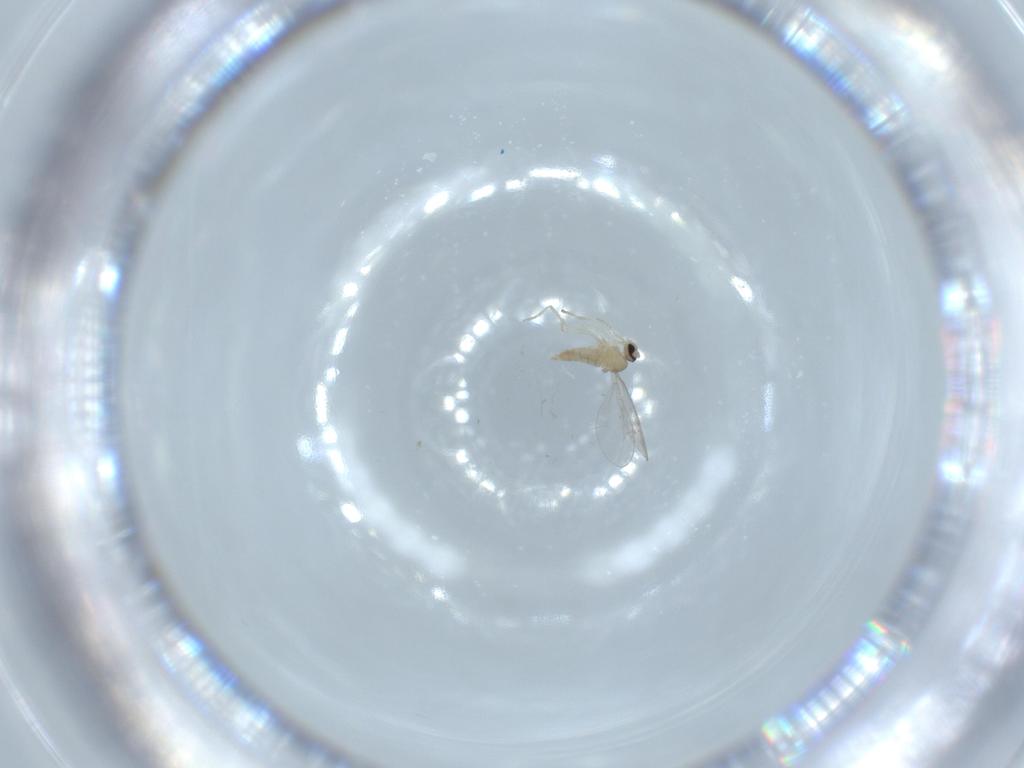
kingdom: Animalia
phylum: Arthropoda
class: Insecta
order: Diptera
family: Cecidomyiidae
